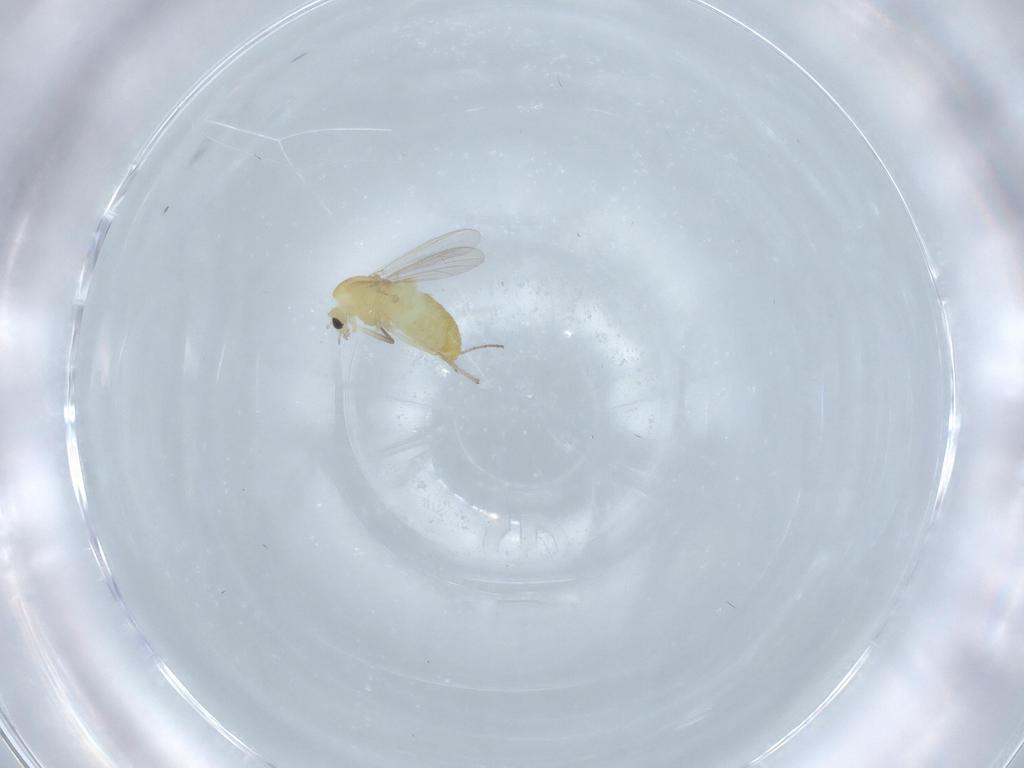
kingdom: Animalia
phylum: Arthropoda
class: Insecta
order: Diptera
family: Chironomidae
